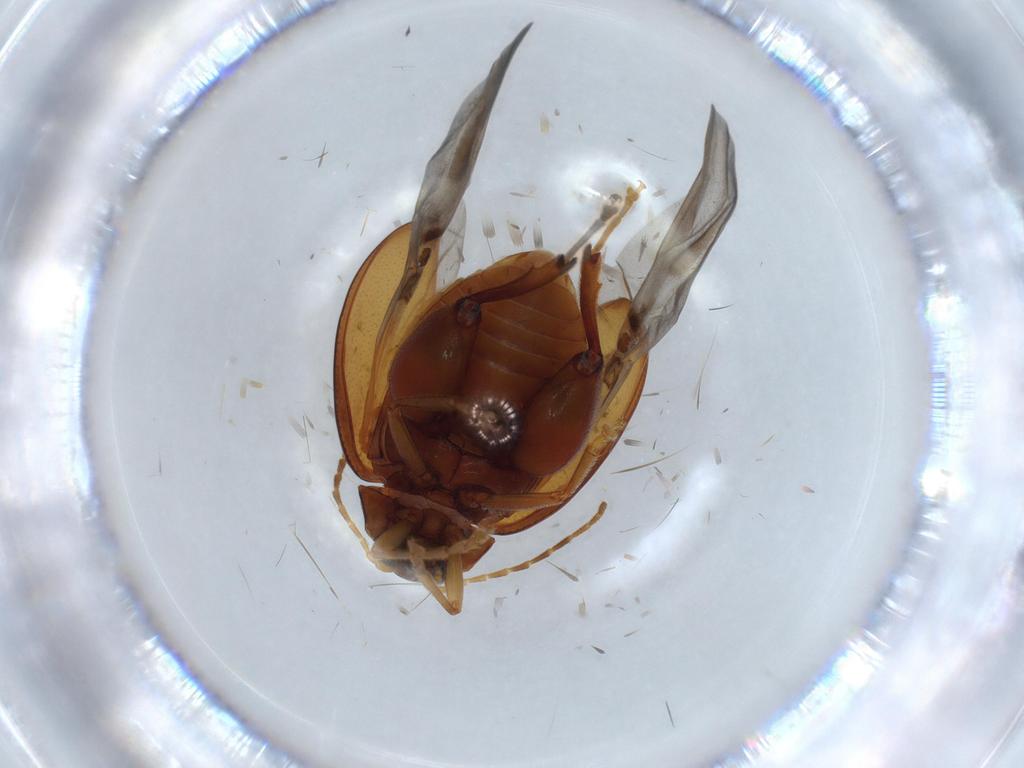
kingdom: Animalia
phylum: Arthropoda
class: Insecta
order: Coleoptera
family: Chrysomelidae
